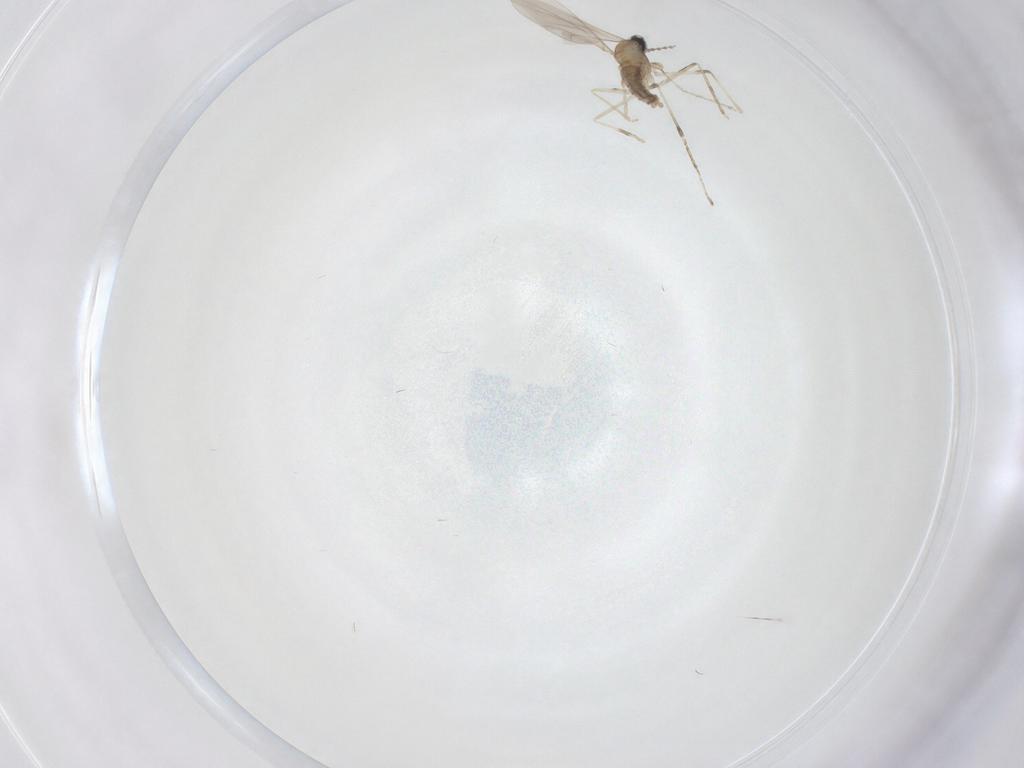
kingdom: Animalia
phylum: Arthropoda
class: Insecta
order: Diptera
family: Cecidomyiidae
